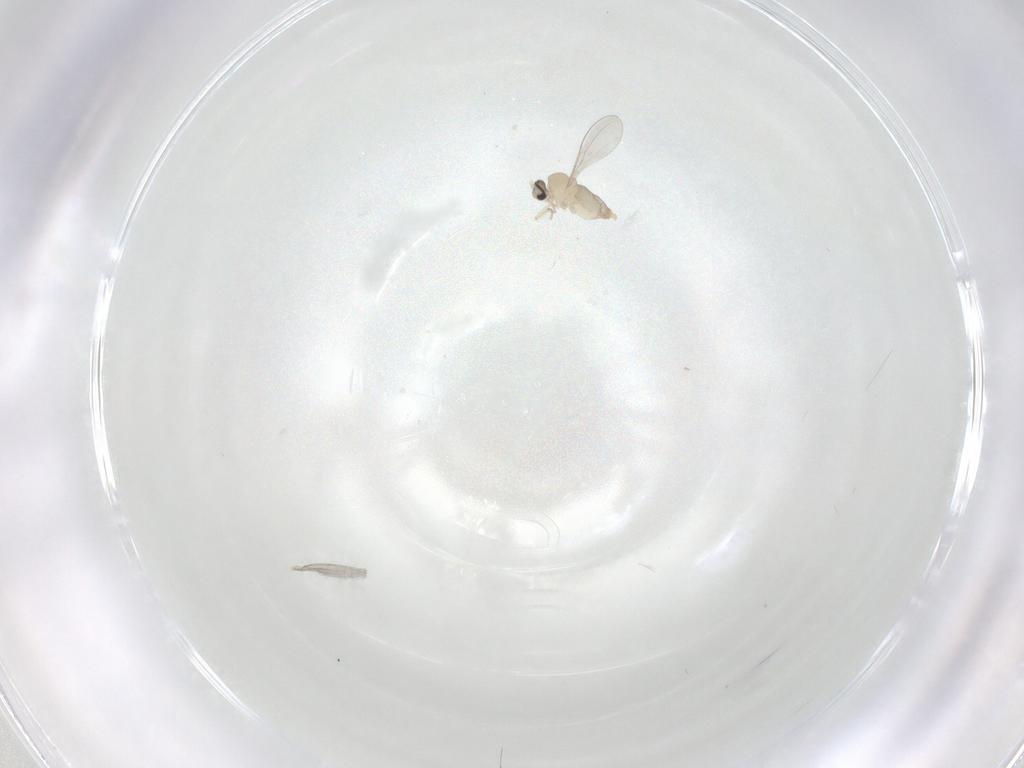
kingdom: Animalia
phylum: Arthropoda
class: Insecta
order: Diptera
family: Cecidomyiidae
